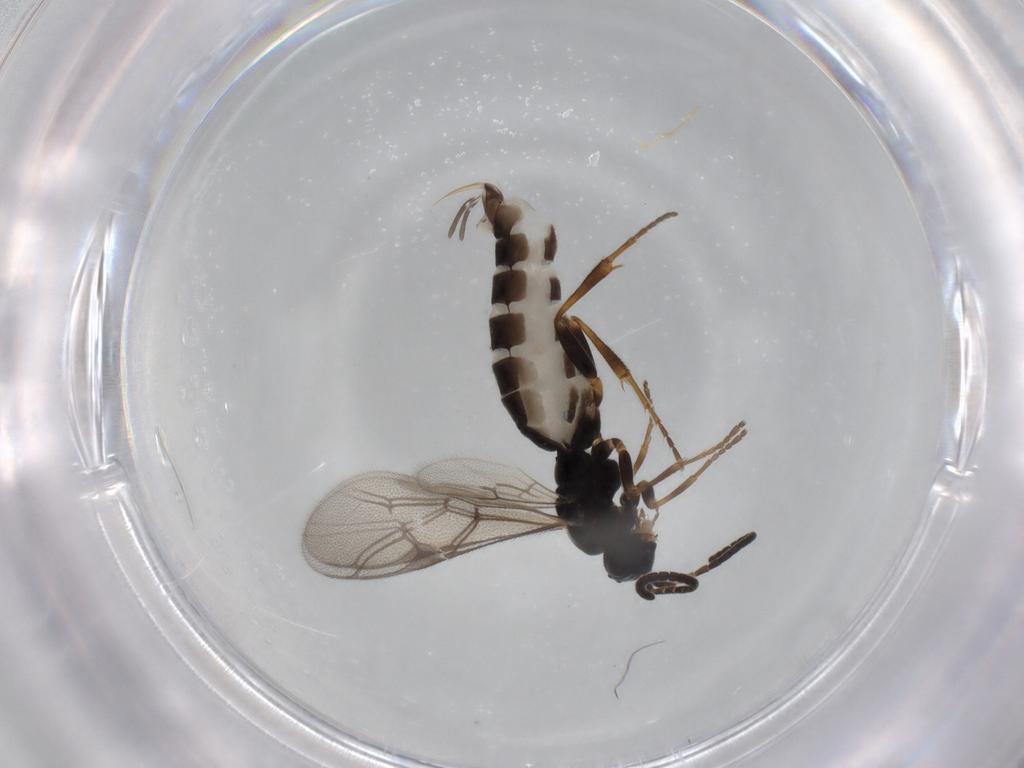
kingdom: Animalia
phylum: Arthropoda
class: Insecta
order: Hymenoptera
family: Ichneumonidae
